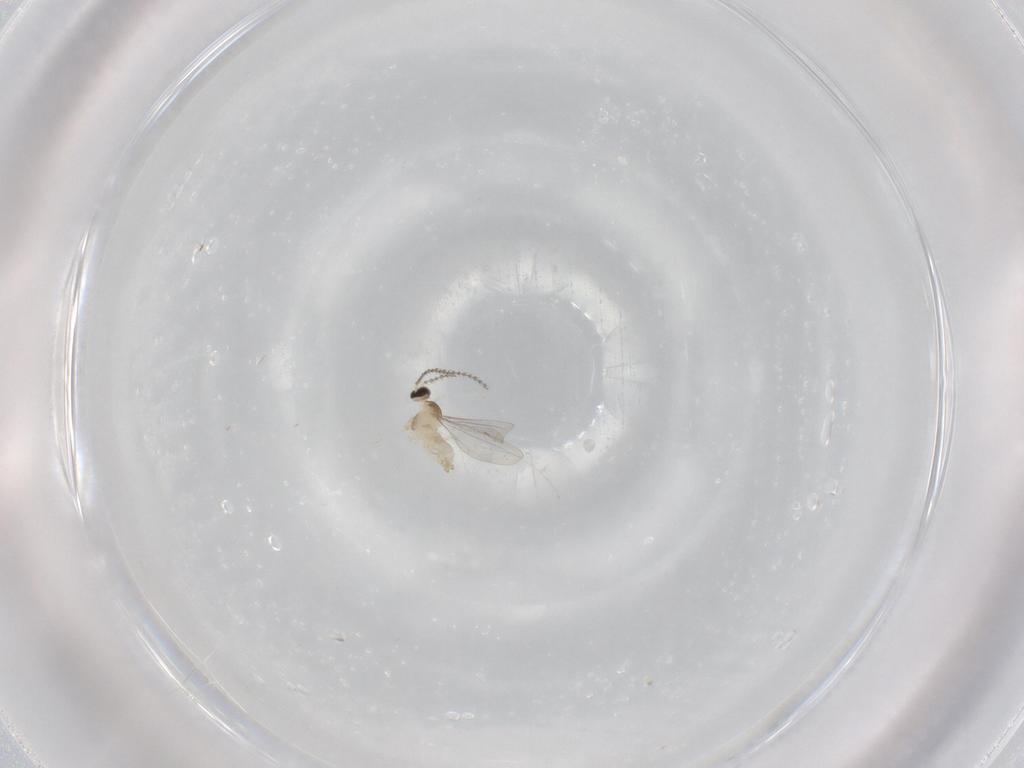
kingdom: Animalia
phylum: Arthropoda
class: Insecta
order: Diptera
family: Cecidomyiidae
